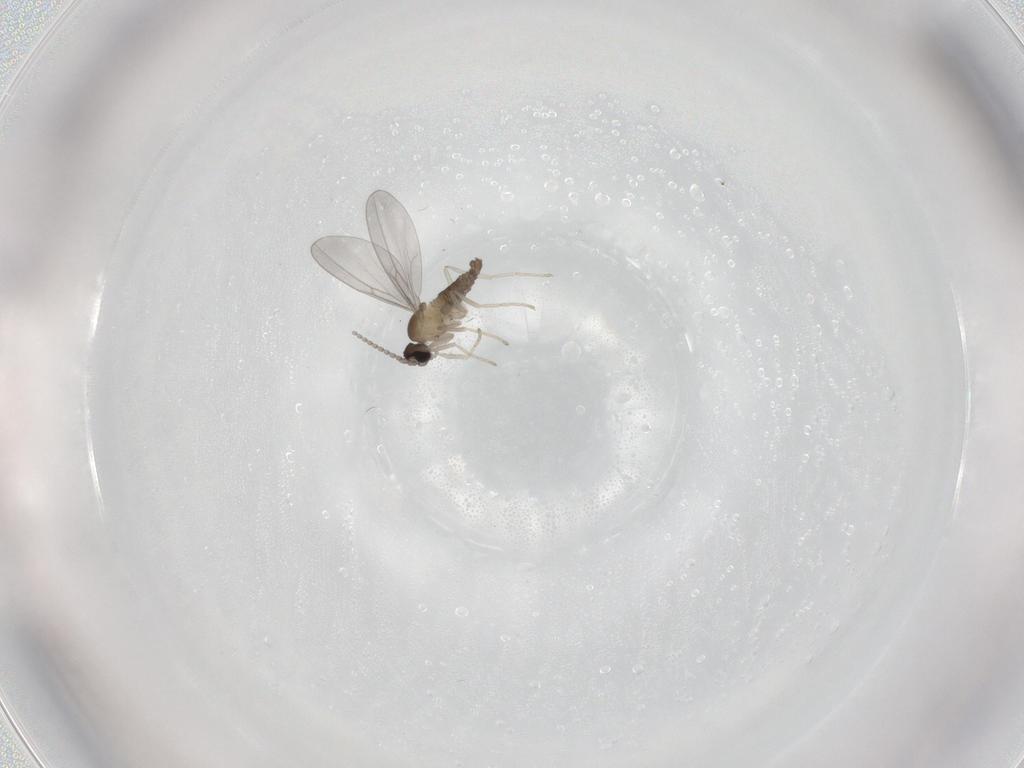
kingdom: Animalia
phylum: Arthropoda
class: Insecta
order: Diptera
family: Cecidomyiidae
